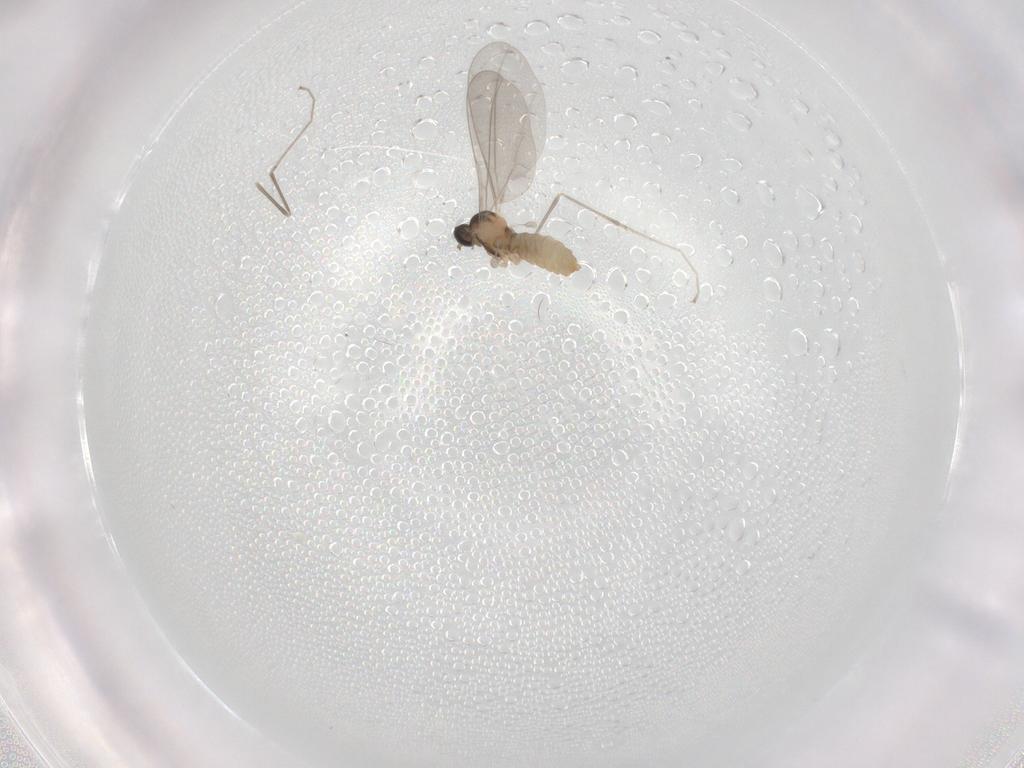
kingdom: Animalia
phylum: Arthropoda
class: Insecta
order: Diptera
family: Cecidomyiidae
